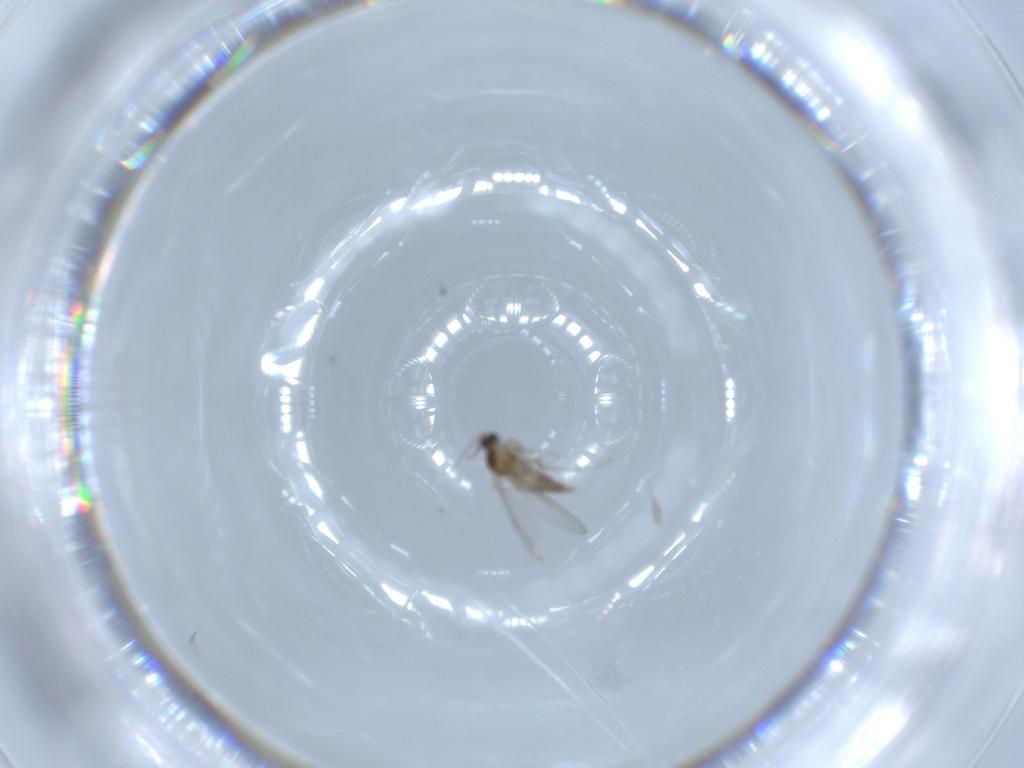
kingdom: Animalia
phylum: Arthropoda
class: Insecta
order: Diptera
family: Cecidomyiidae
